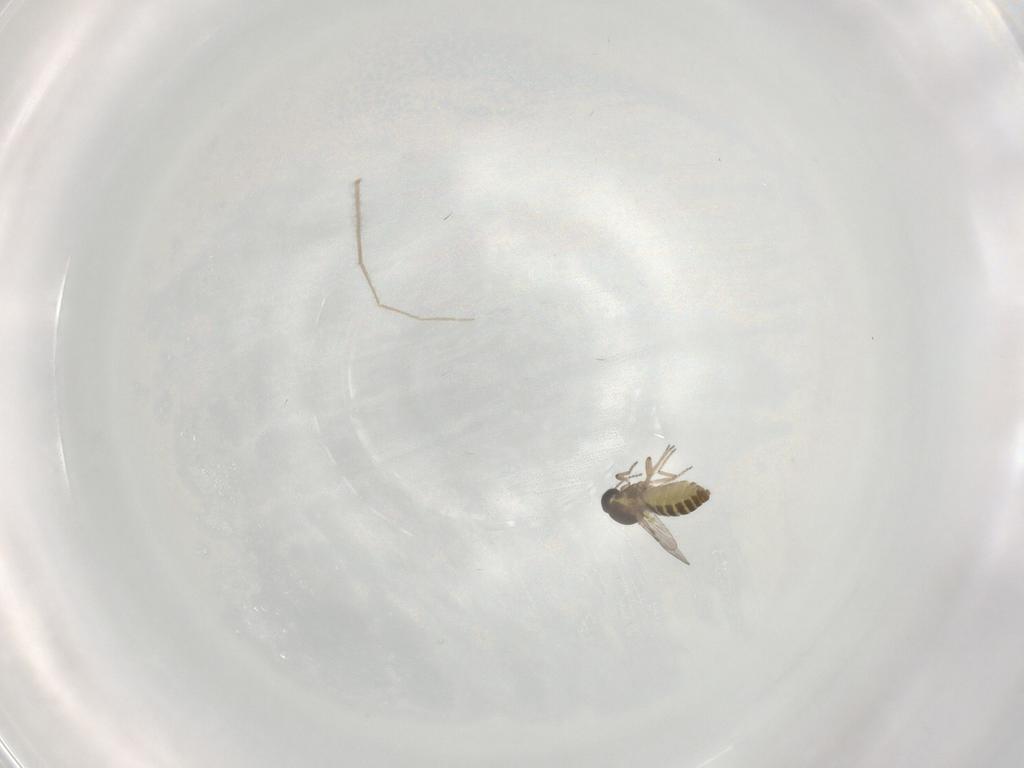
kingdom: Animalia
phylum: Arthropoda
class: Insecta
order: Diptera
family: Ceratopogonidae
